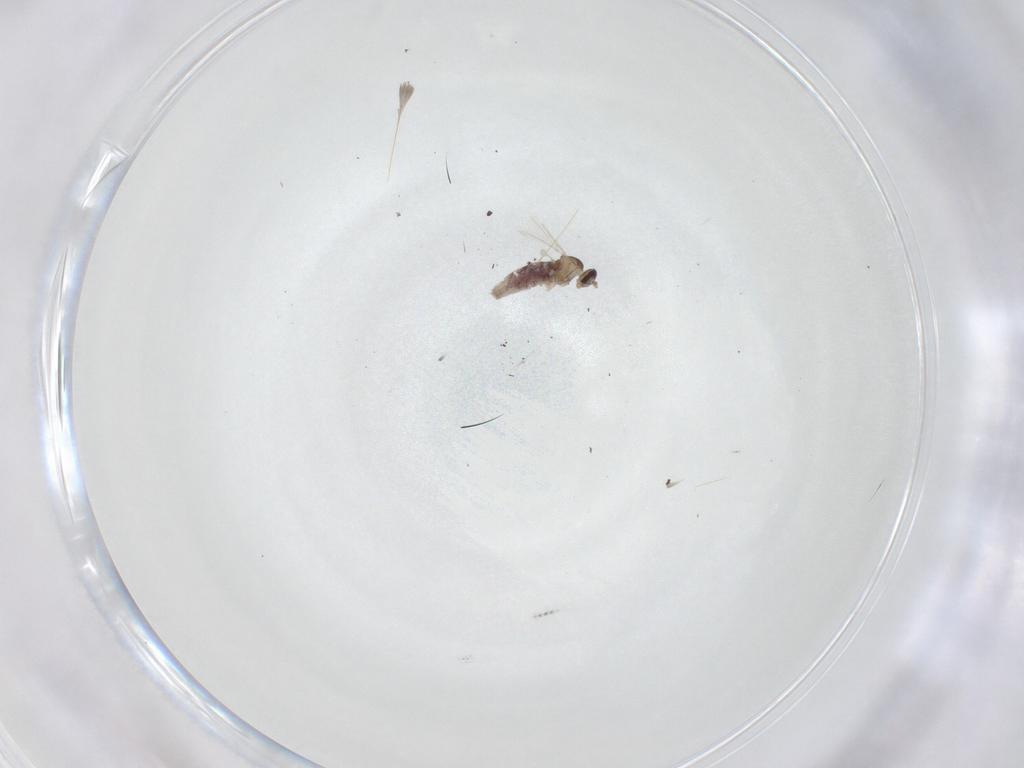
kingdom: Animalia
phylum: Arthropoda
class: Insecta
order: Diptera
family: Cecidomyiidae
